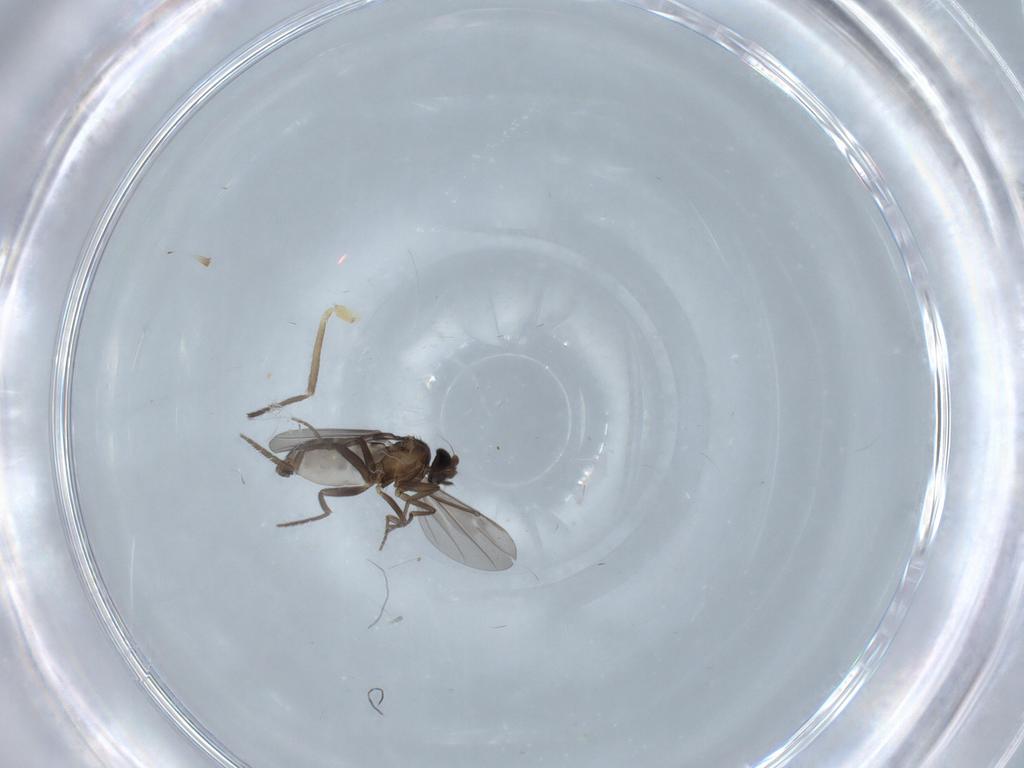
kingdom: Animalia
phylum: Arthropoda
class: Insecta
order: Diptera
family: Chironomidae
